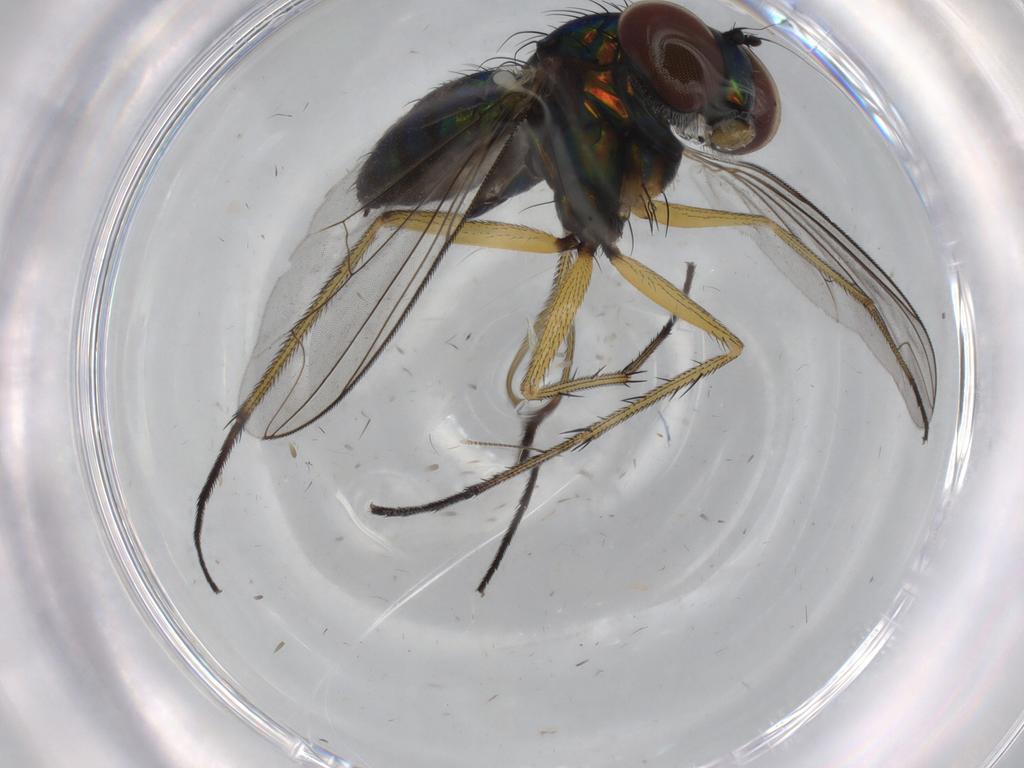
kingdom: Animalia
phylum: Arthropoda
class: Insecta
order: Diptera
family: Dolichopodidae
